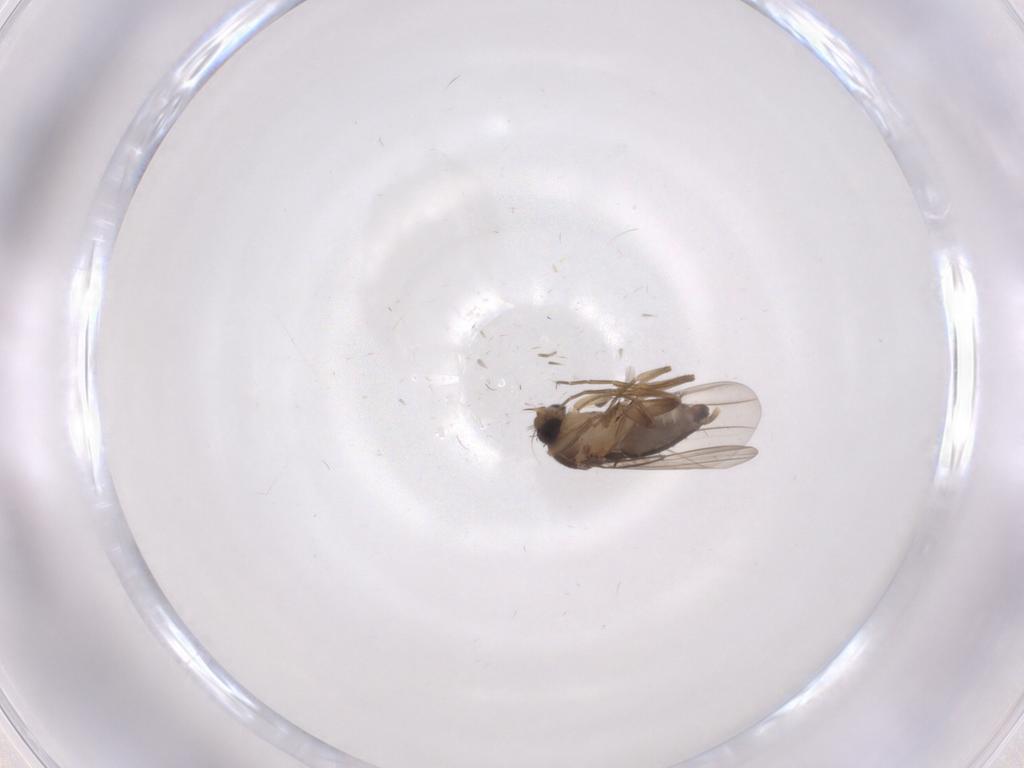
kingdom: Animalia
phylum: Arthropoda
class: Insecta
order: Diptera
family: Phoridae
